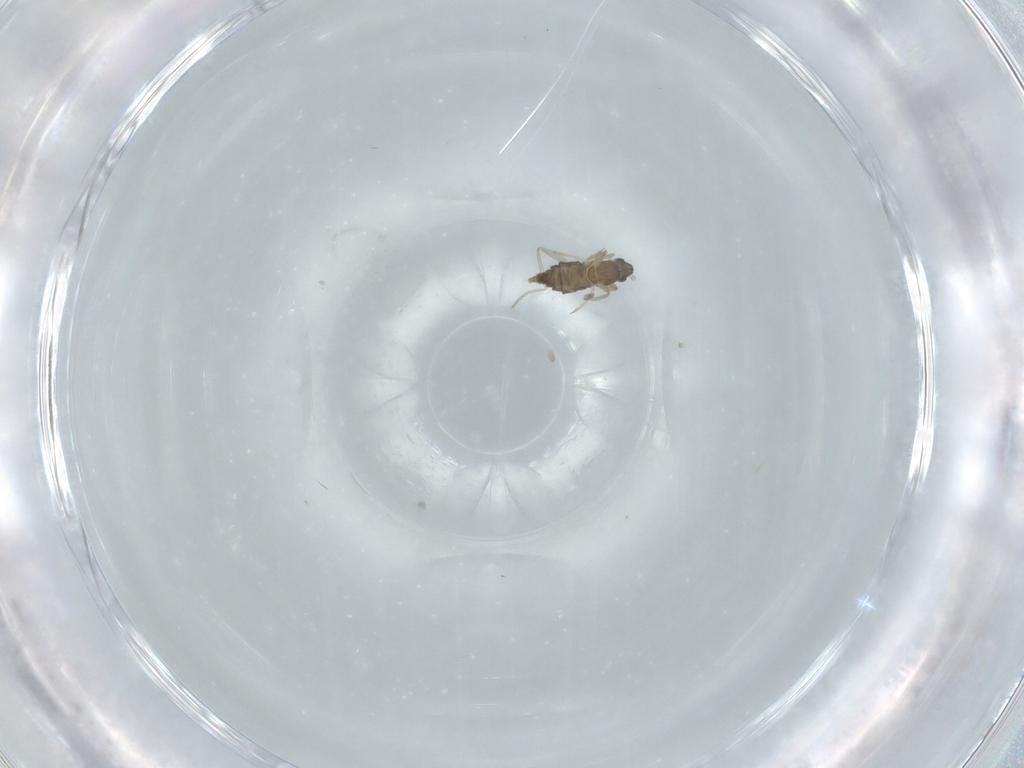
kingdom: Animalia
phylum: Arthropoda
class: Insecta
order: Diptera
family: Cecidomyiidae
